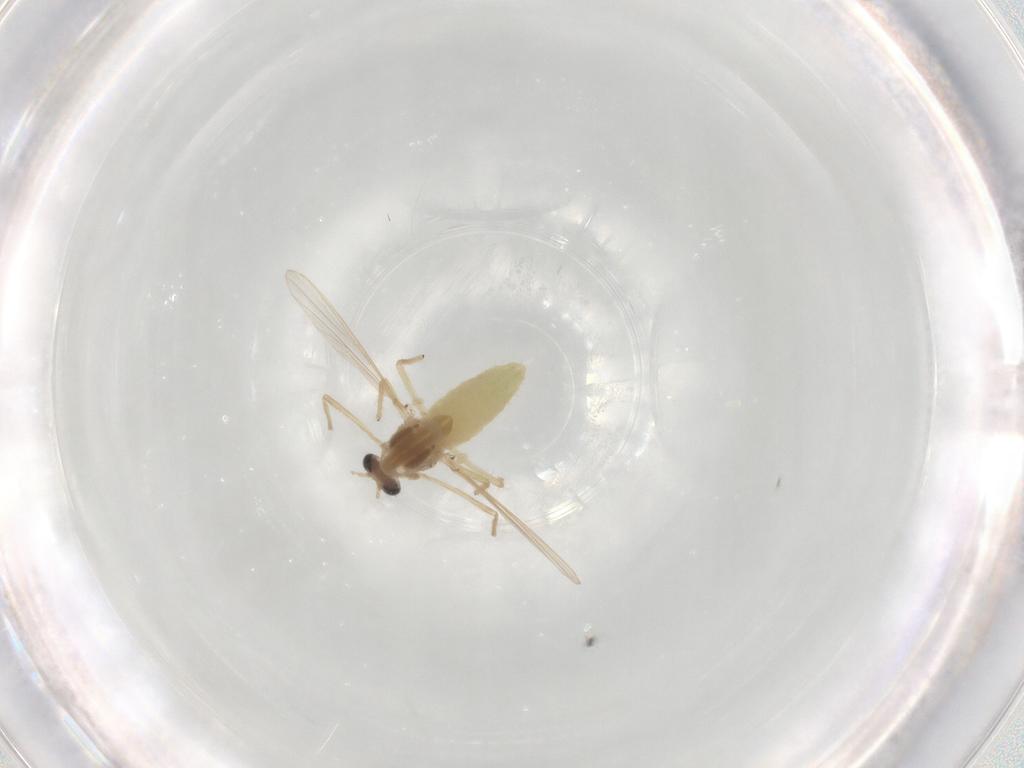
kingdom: Animalia
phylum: Arthropoda
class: Insecta
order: Diptera
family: Chironomidae
